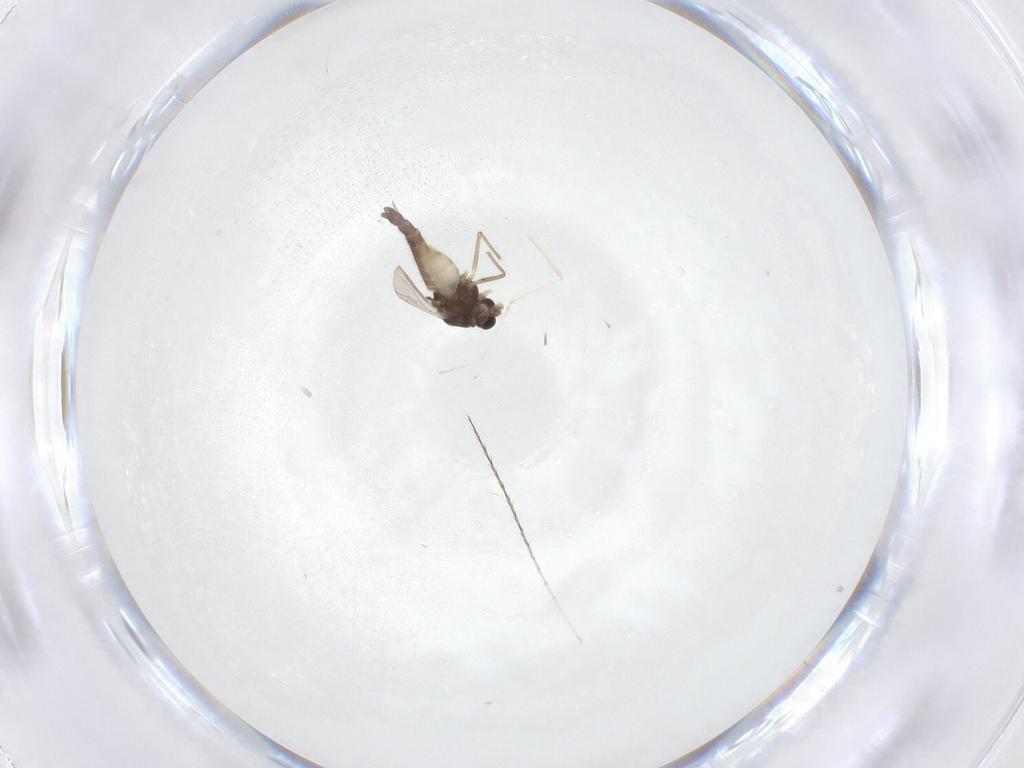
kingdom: Animalia
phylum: Arthropoda
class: Insecta
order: Diptera
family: Chironomidae
